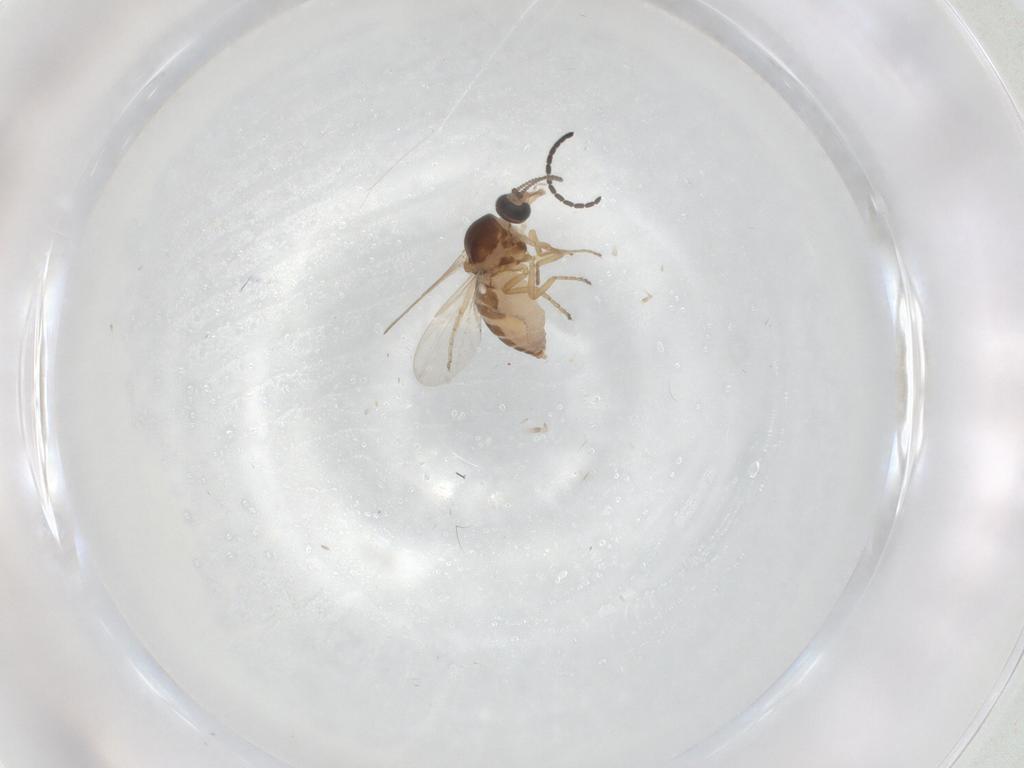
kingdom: Animalia
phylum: Arthropoda
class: Insecta
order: Diptera
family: Ceratopogonidae
